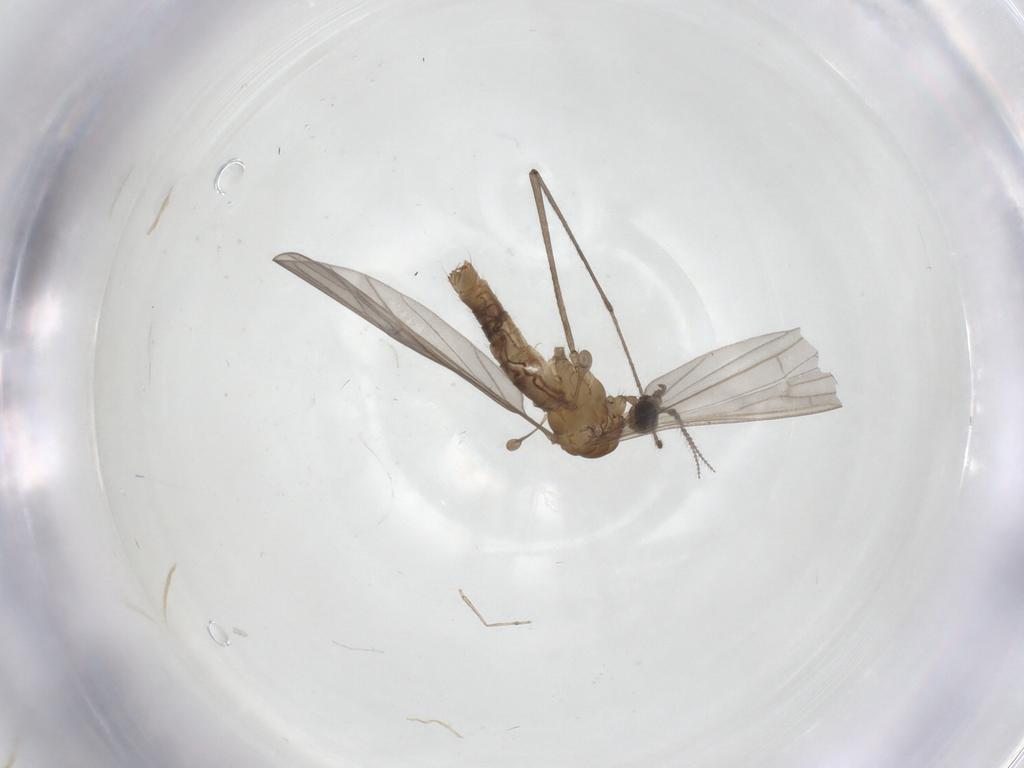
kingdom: Animalia
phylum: Arthropoda
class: Insecta
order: Diptera
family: Limoniidae
